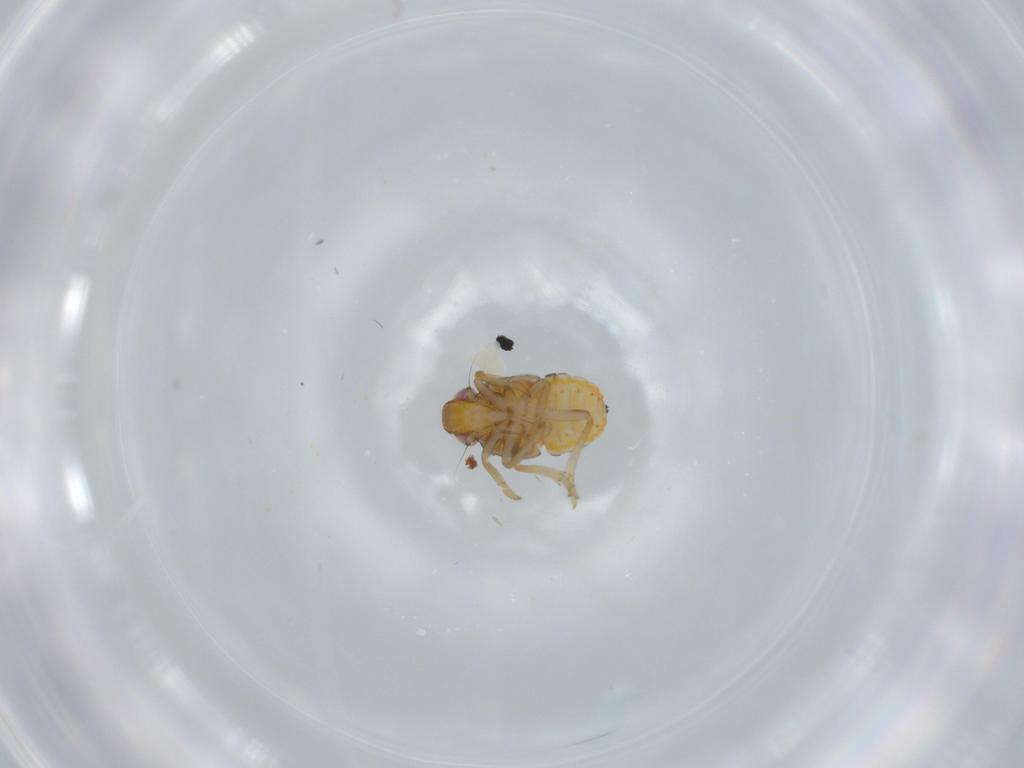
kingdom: Animalia
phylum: Arthropoda
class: Insecta
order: Hemiptera
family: Issidae
